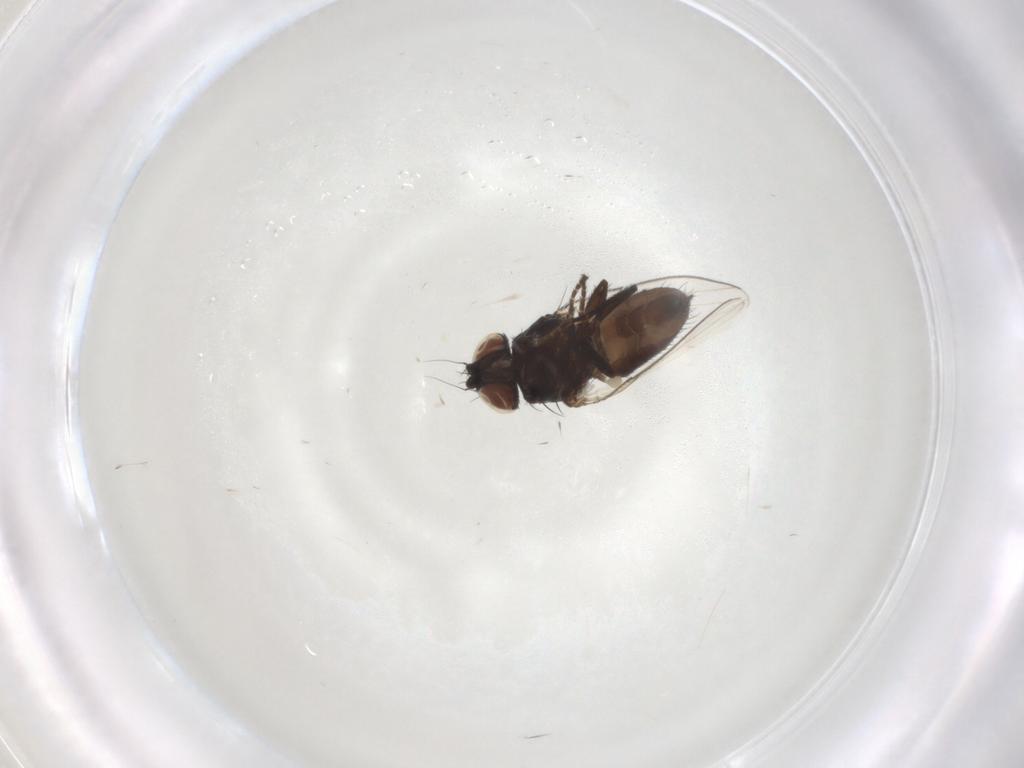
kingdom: Animalia
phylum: Arthropoda
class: Insecta
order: Diptera
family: Milichiidae
